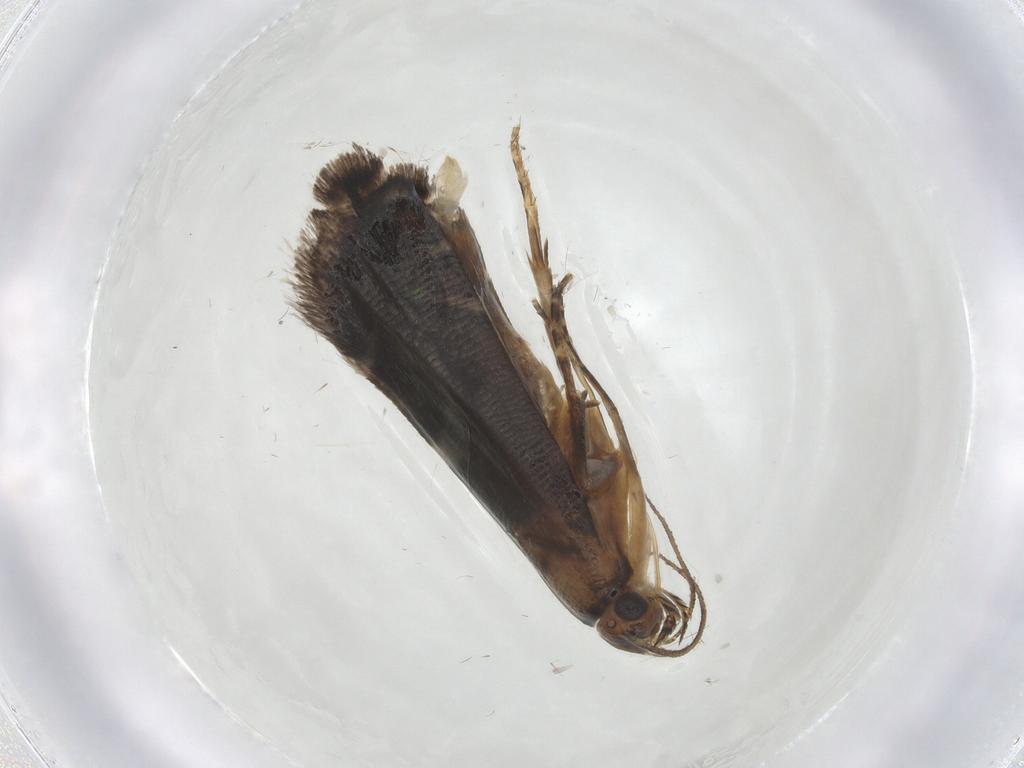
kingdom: Animalia
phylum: Arthropoda
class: Insecta
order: Lepidoptera
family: Glyphipterigidae
